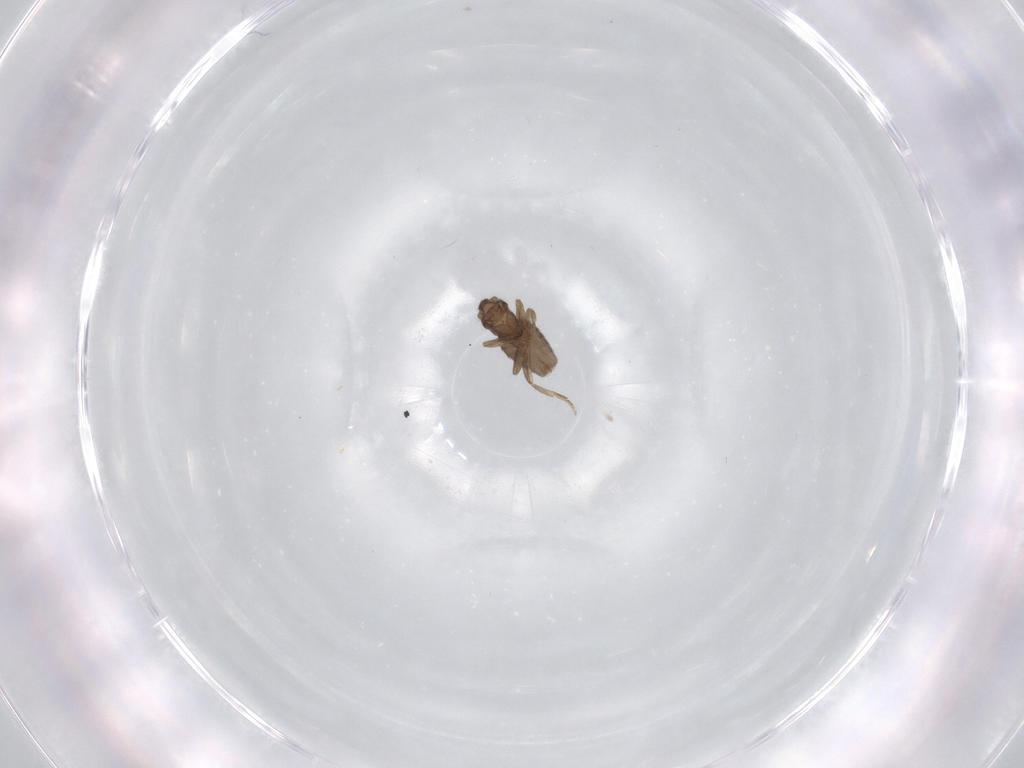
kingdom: Animalia
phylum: Arthropoda
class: Insecta
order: Diptera
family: Phoridae
